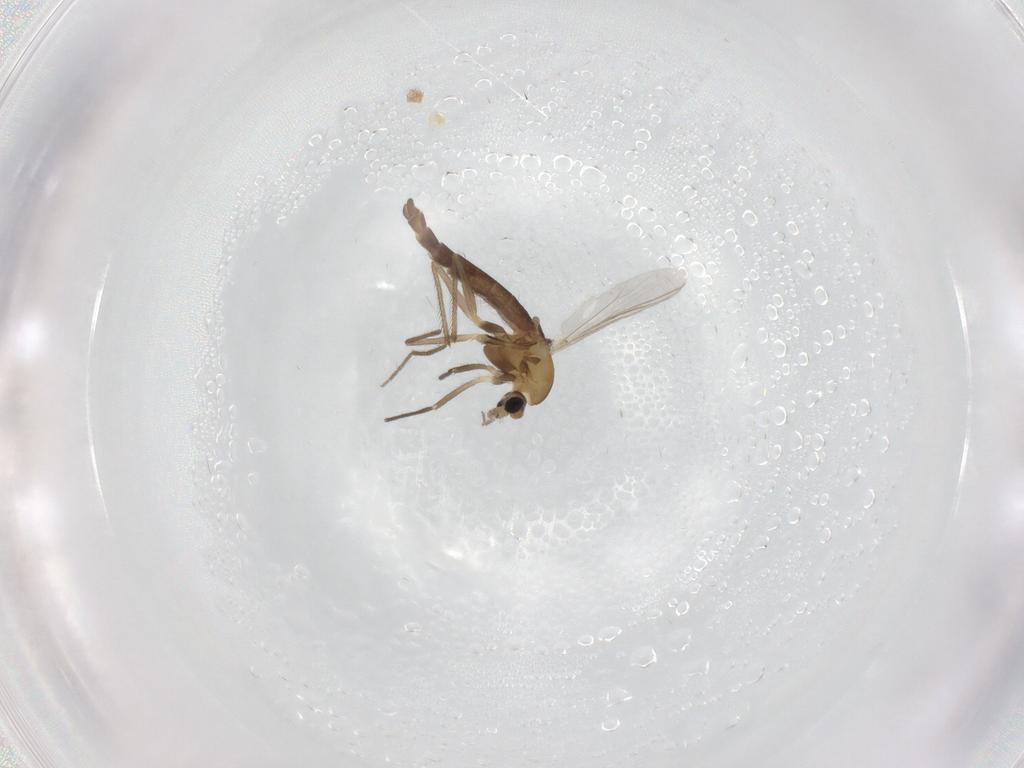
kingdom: Animalia
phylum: Arthropoda
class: Insecta
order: Diptera
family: Chironomidae
